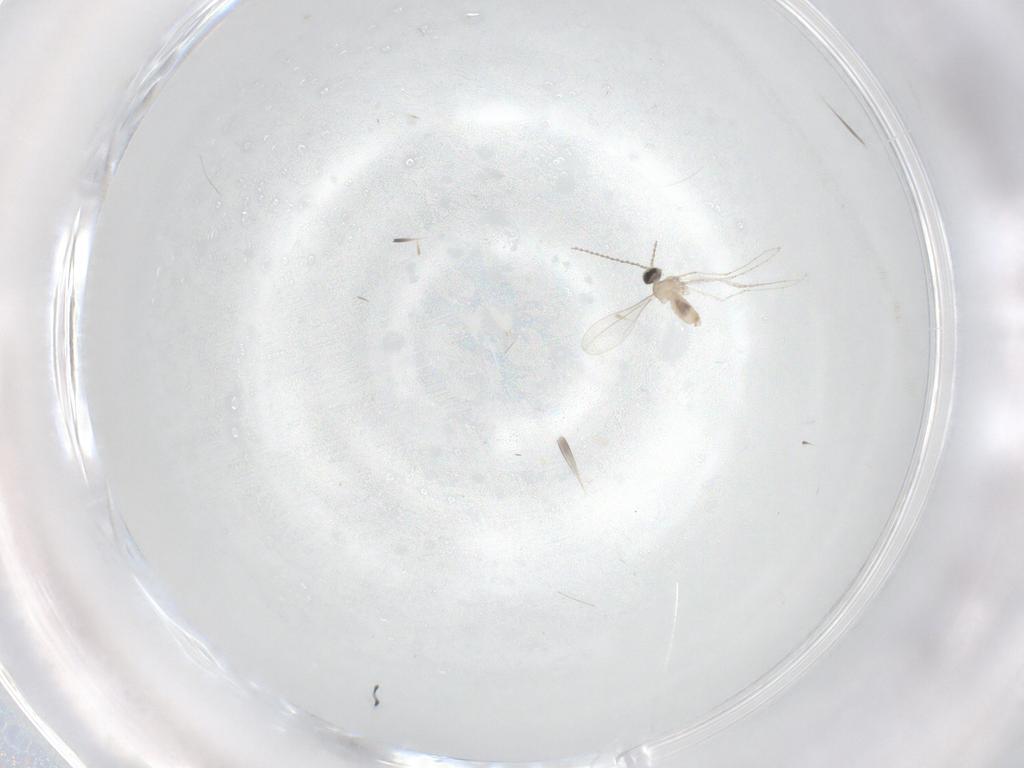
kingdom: Animalia
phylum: Arthropoda
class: Insecta
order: Diptera
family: Cecidomyiidae
